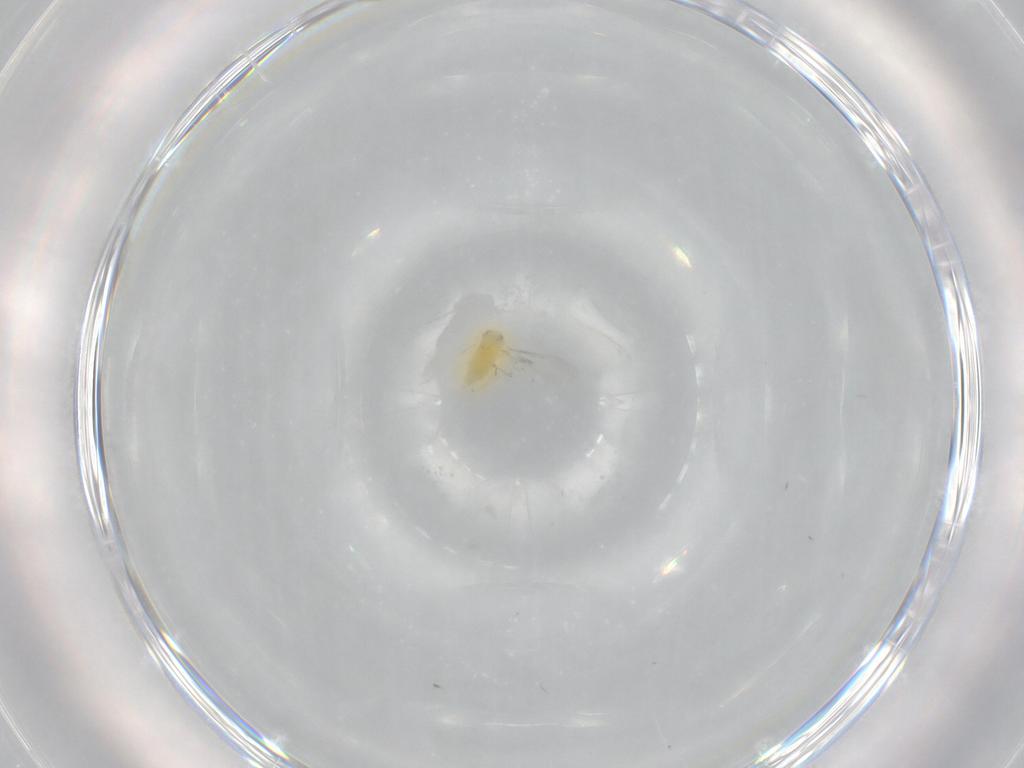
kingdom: Animalia
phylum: Arthropoda
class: Insecta
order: Hymenoptera
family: Aphelinidae
